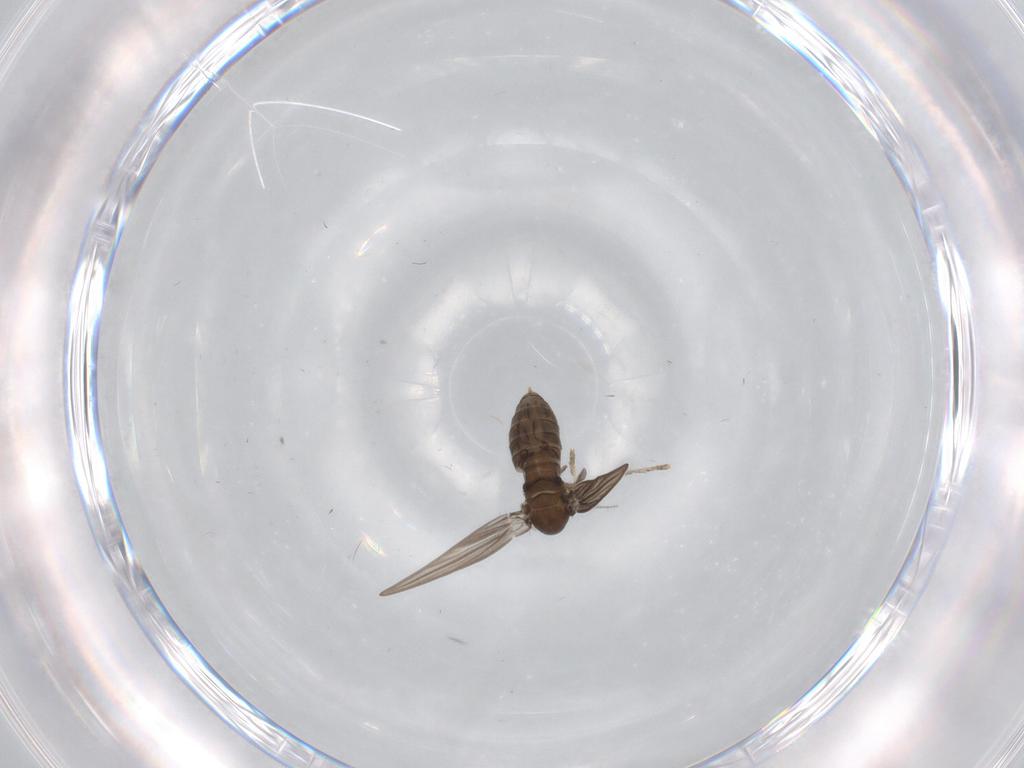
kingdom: Animalia
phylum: Arthropoda
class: Insecta
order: Diptera
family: Psychodidae
